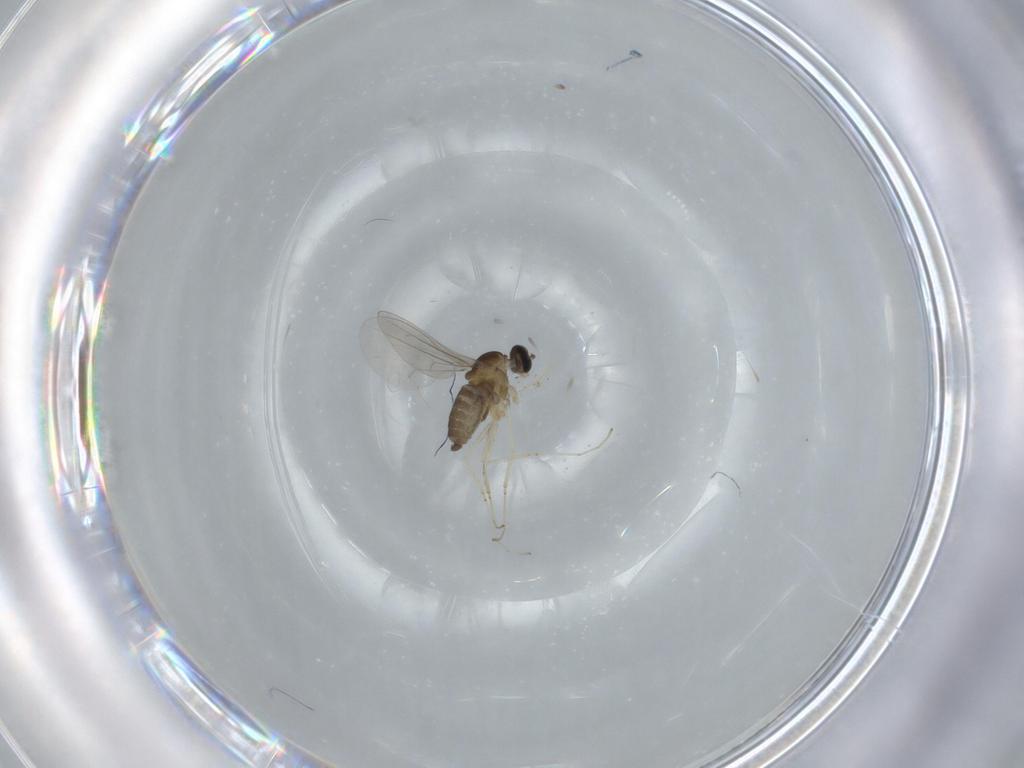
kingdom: Animalia
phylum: Arthropoda
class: Insecta
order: Diptera
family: Cecidomyiidae
